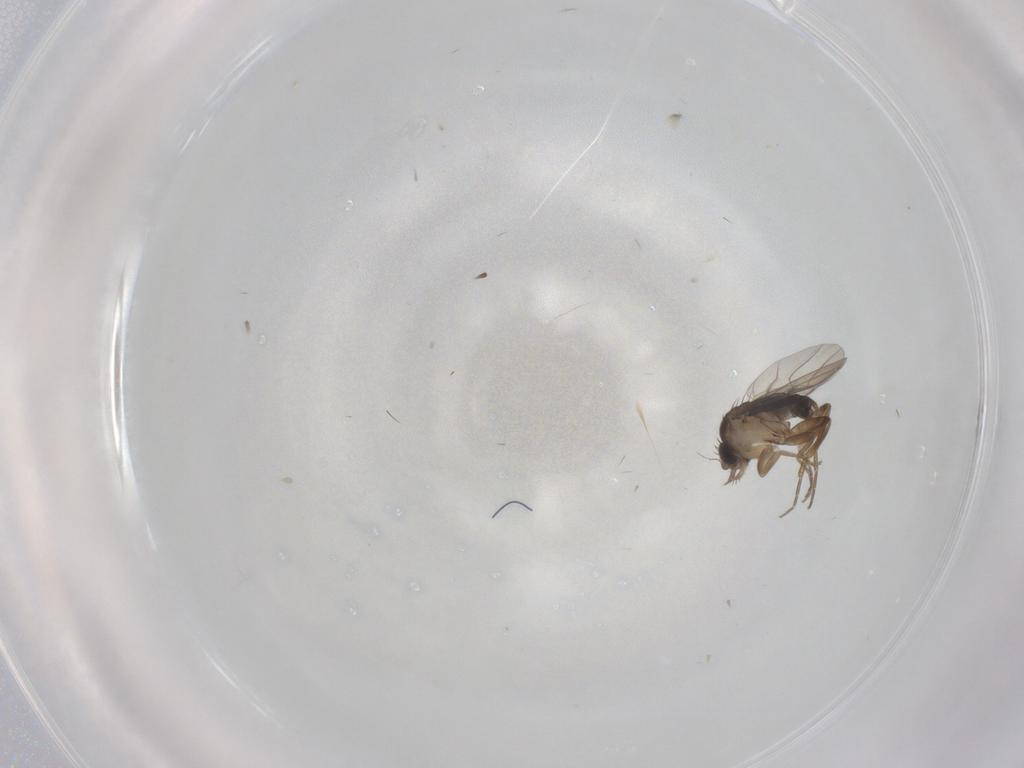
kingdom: Animalia
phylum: Arthropoda
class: Insecta
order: Diptera
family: Phoridae
